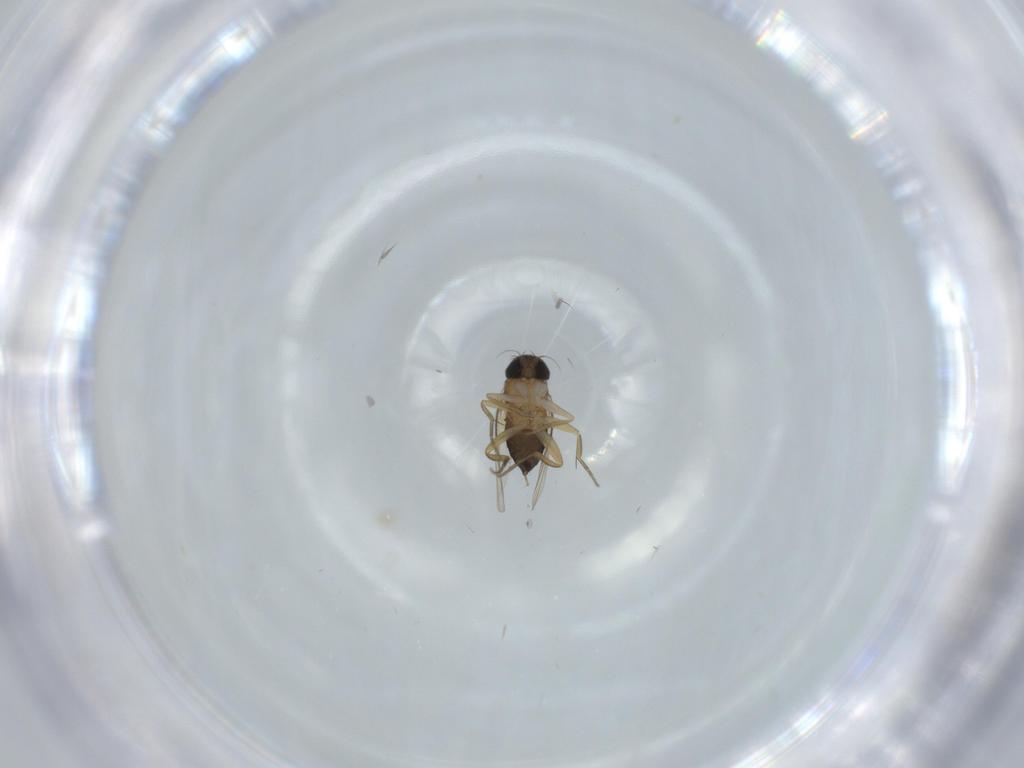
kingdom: Animalia
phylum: Arthropoda
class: Insecta
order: Diptera
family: Phoridae
